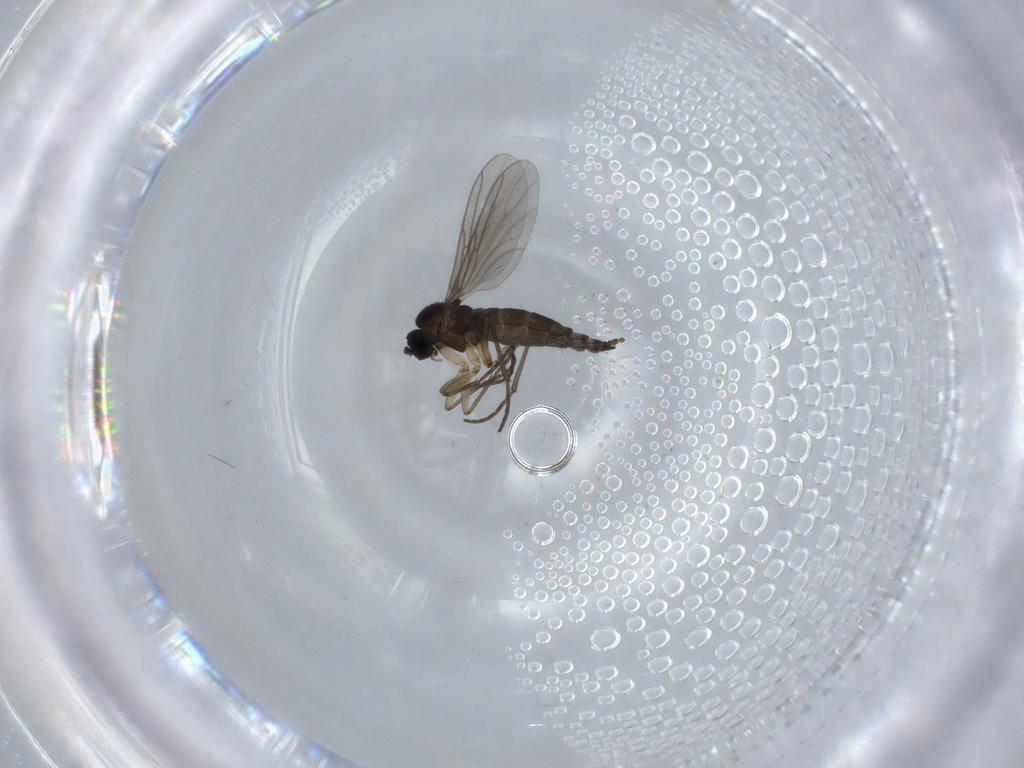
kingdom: Animalia
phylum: Arthropoda
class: Insecta
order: Diptera
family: Sciaridae
